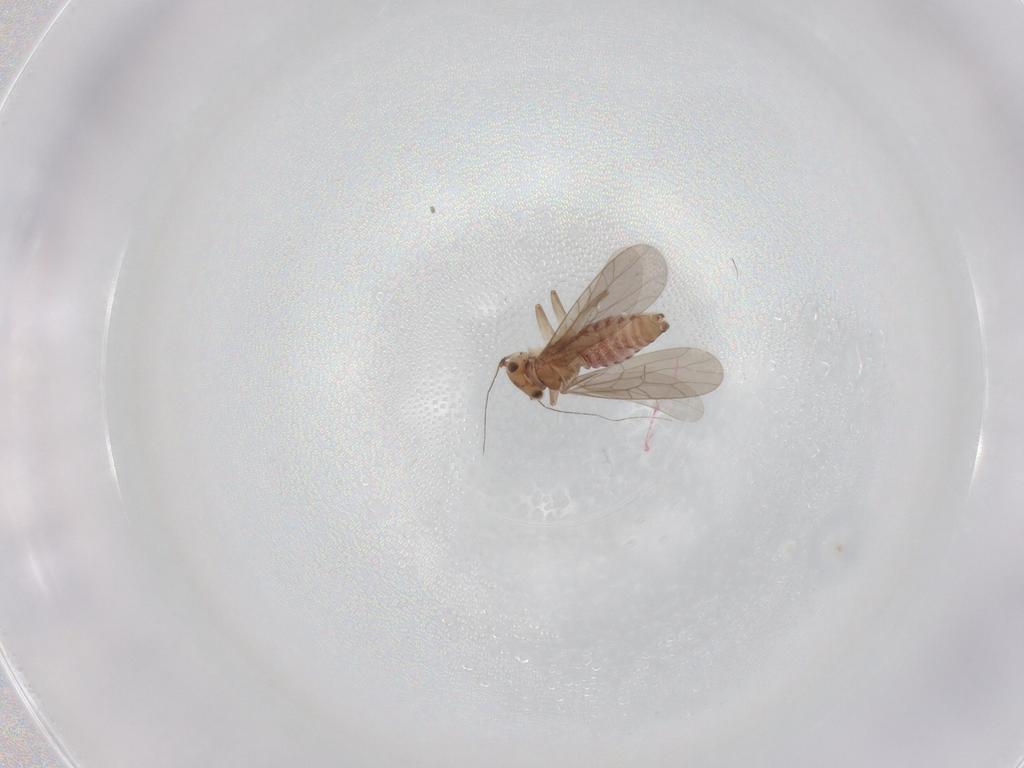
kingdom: Animalia
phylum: Arthropoda
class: Insecta
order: Psocodea
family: Lepidopsocidae
